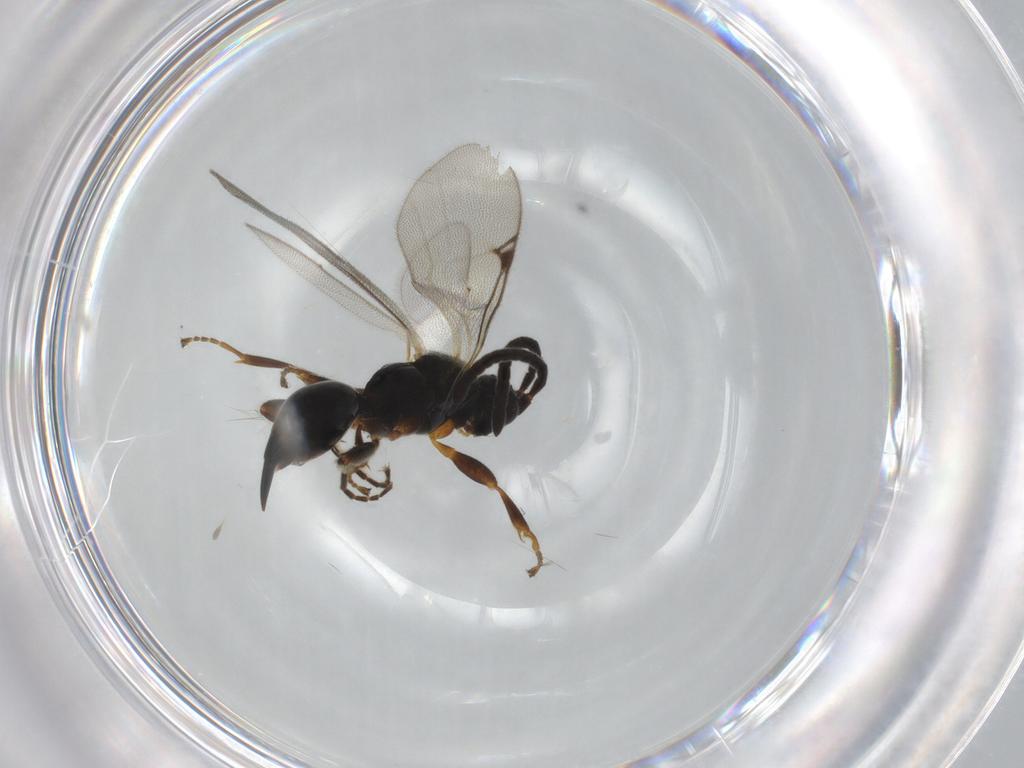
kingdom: Animalia
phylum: Arthropoda
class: Insecta
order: Hymenoptera
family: Proctotrupidae
